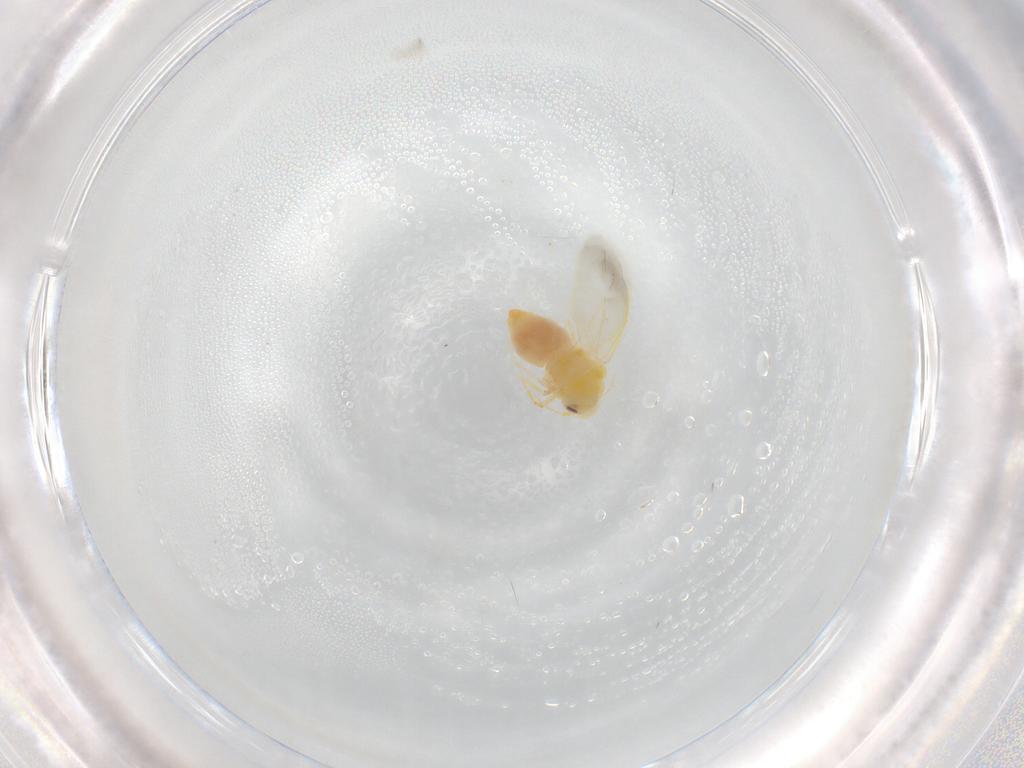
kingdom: Animalia
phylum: Arthropoda
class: Insecta
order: Hemiptera
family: Aleyrodidae
